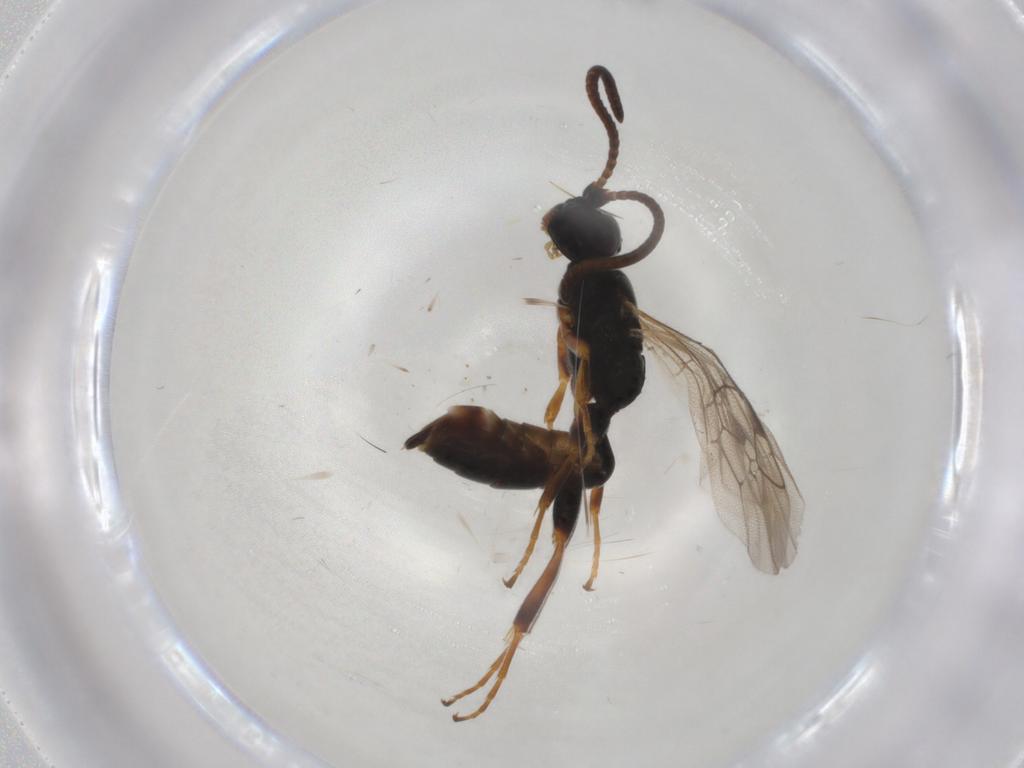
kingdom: Animalia
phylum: Arthropoda
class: Insecta
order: Hymenoptera
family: Ichneumonidae
